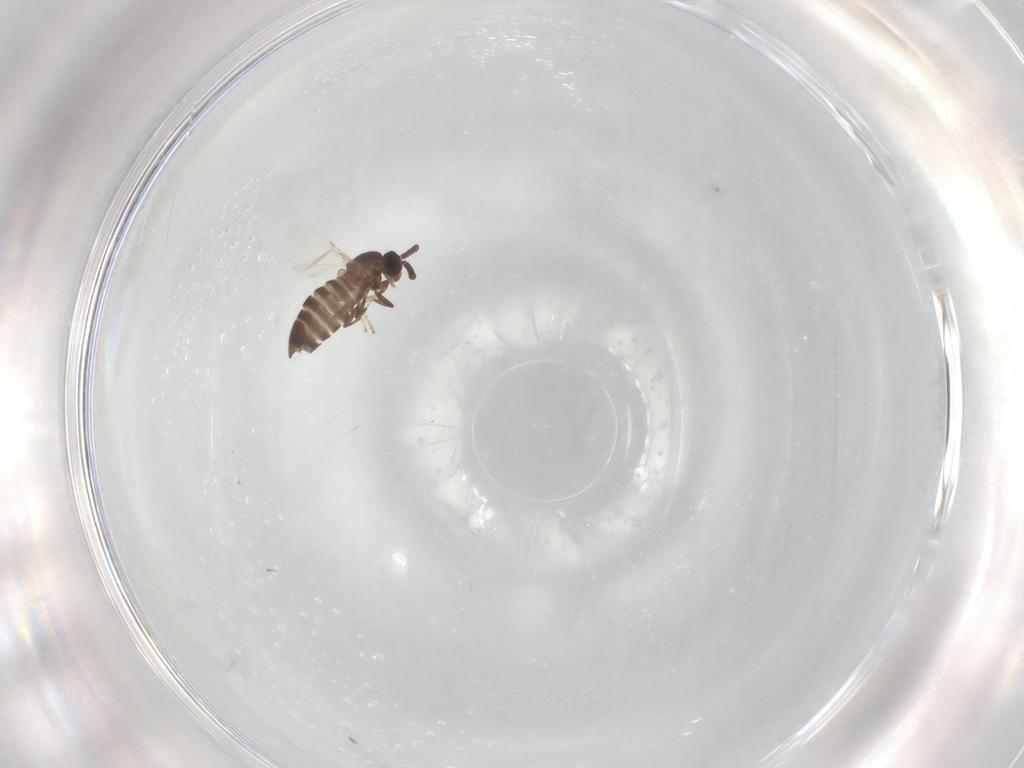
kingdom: Animalia
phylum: Arthropoda
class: Insecta
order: Diptera
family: Scatopsidae
